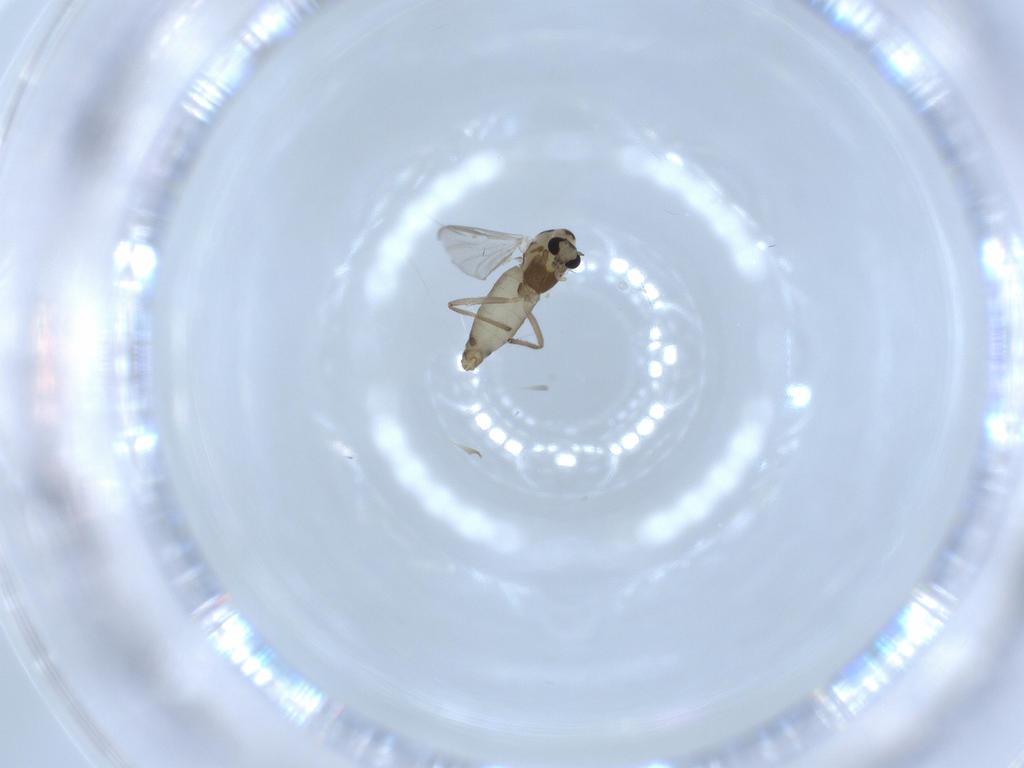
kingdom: Animalia
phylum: Arthropoda
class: Insecta
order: Diptera
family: Chironomidae
